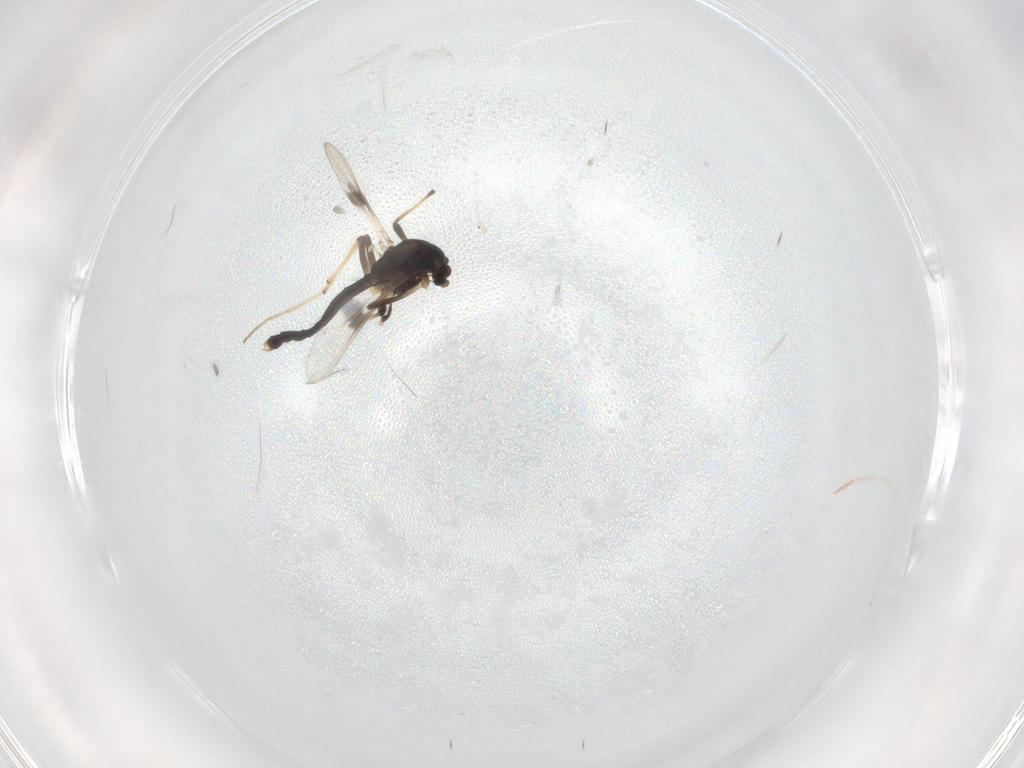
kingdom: Animalia
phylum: Arthropoda
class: Insecta
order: Diptera
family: Chironomidae
